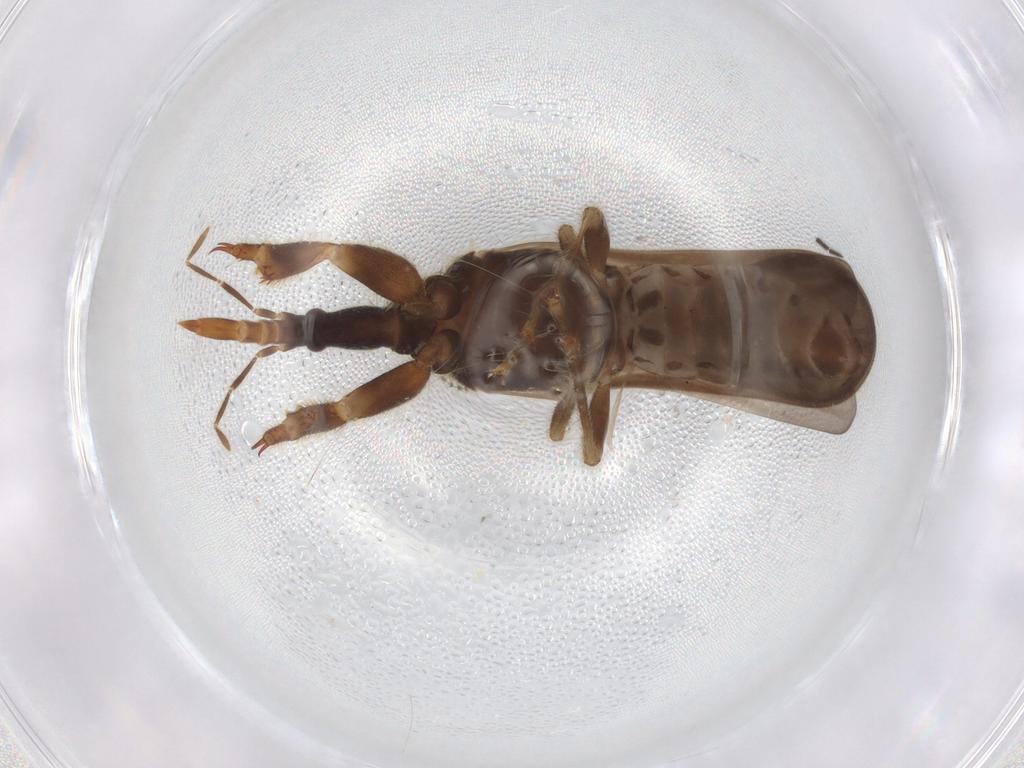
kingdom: Animalia
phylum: Arthropoda
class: Insecta
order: Hemiptera
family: Enicocephalidae
